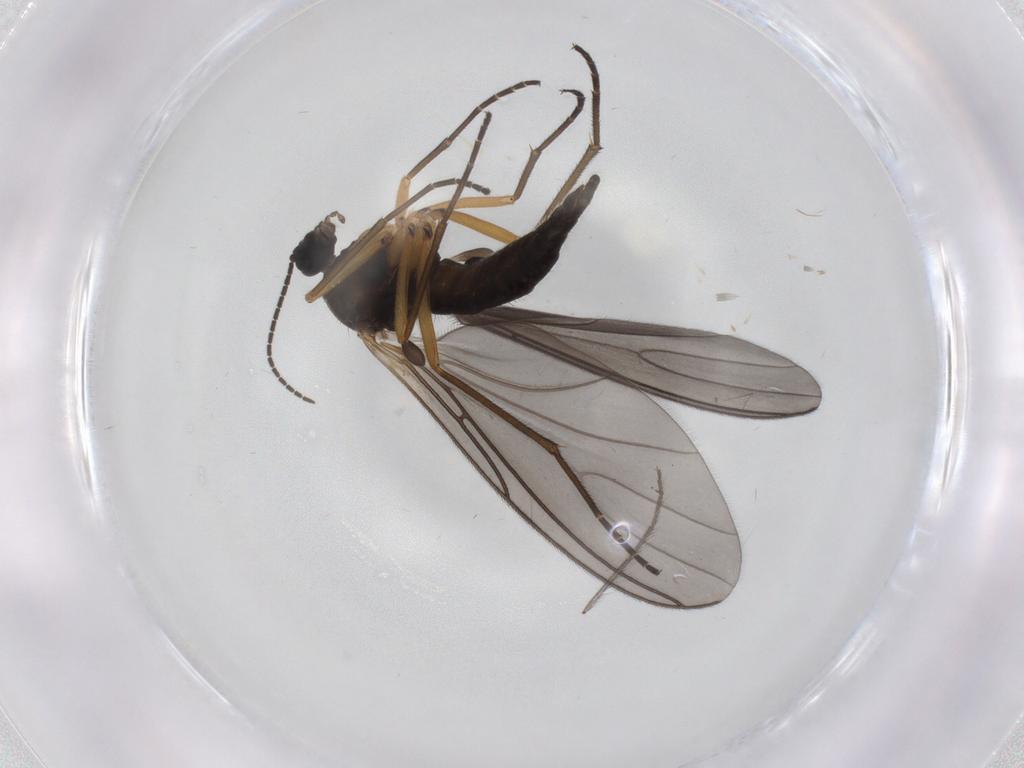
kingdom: Animalia
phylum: Arthropoda
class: Insecta
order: Diptera
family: Sciaridae
